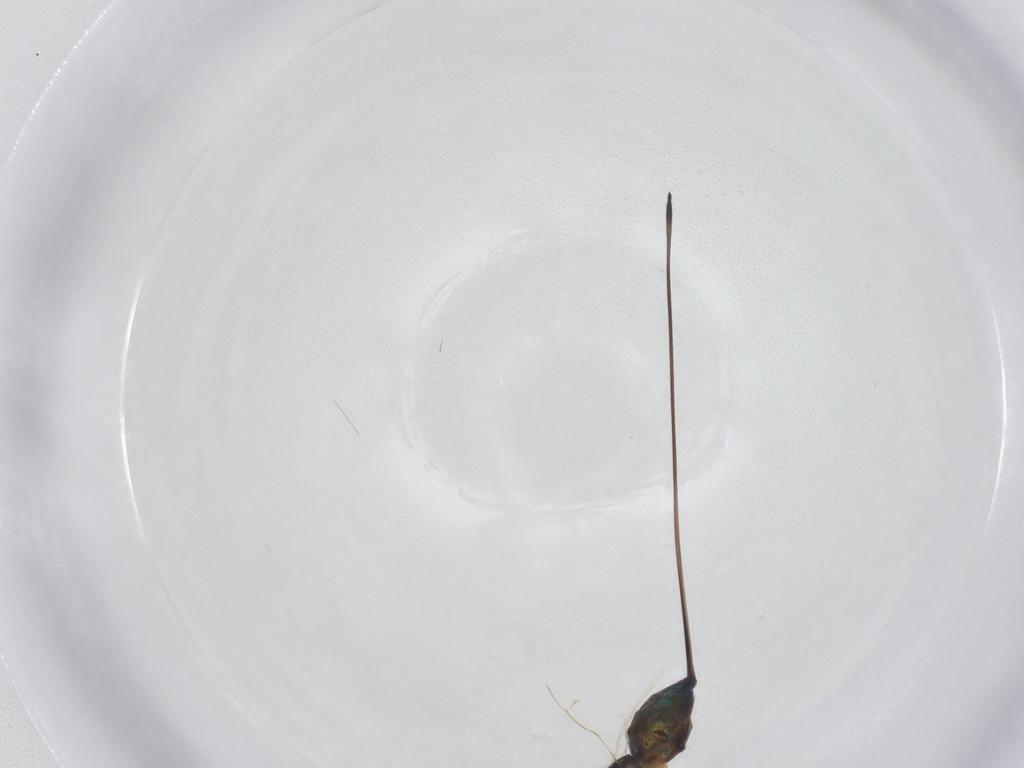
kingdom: Animalia
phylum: Arthropoda
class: Insecta
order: Hymenoptera
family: Pteromalidae
